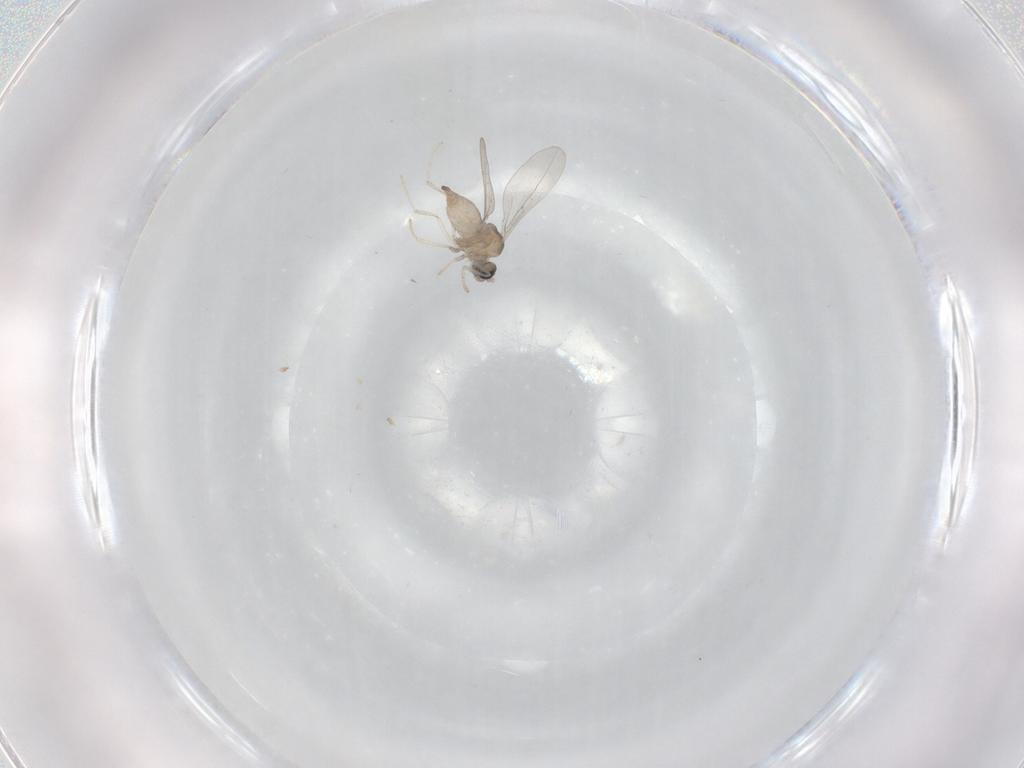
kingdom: Animalia
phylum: Arthropoda
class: Insecta
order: Diptera
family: Cecidomyiidae
